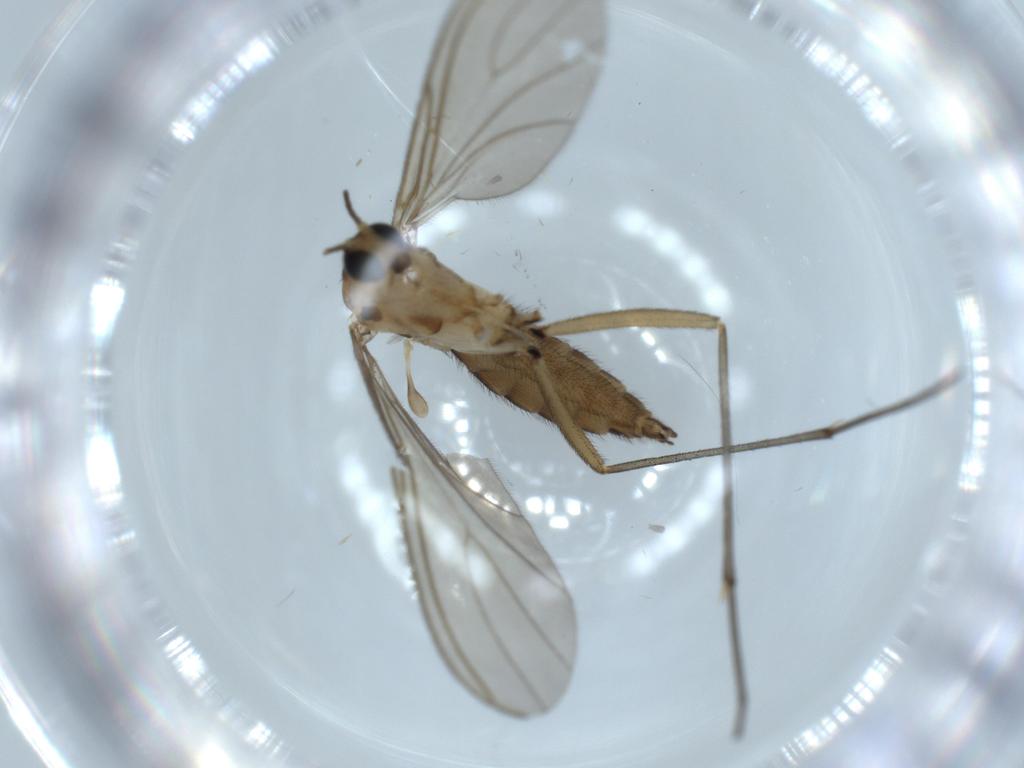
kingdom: Animalia
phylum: Arthropoda
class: Insecta
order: Diptera
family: Sciaridae
